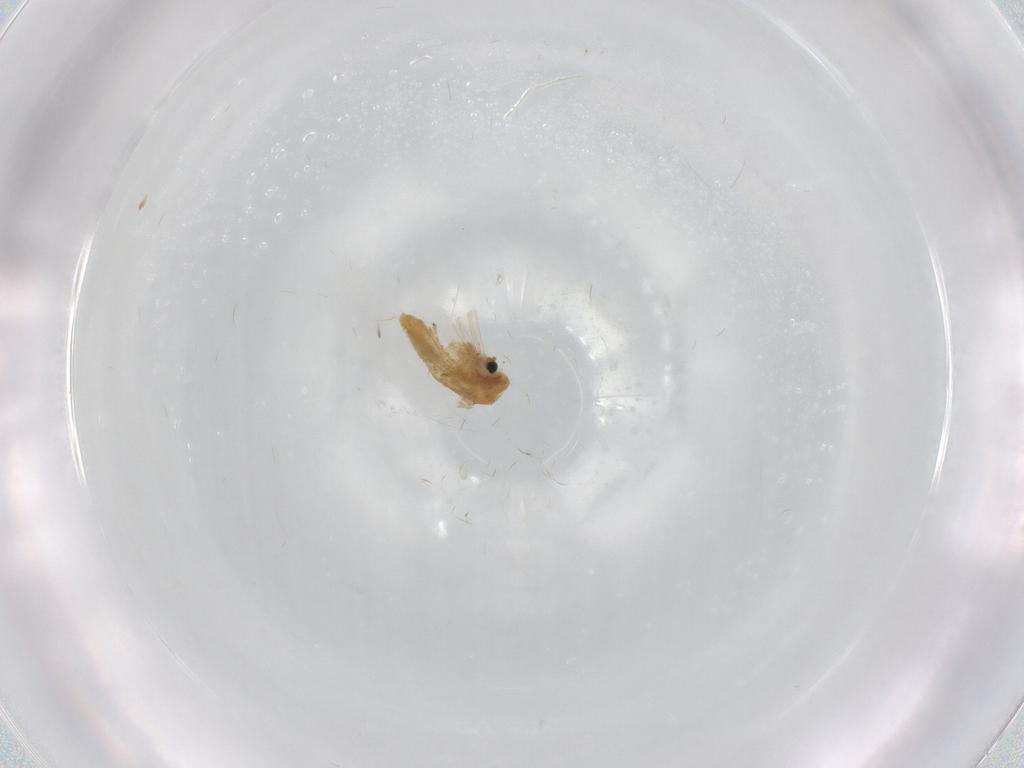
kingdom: Animalia
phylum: Arthropoda
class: Insecta
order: Diptera
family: Chironomidae
